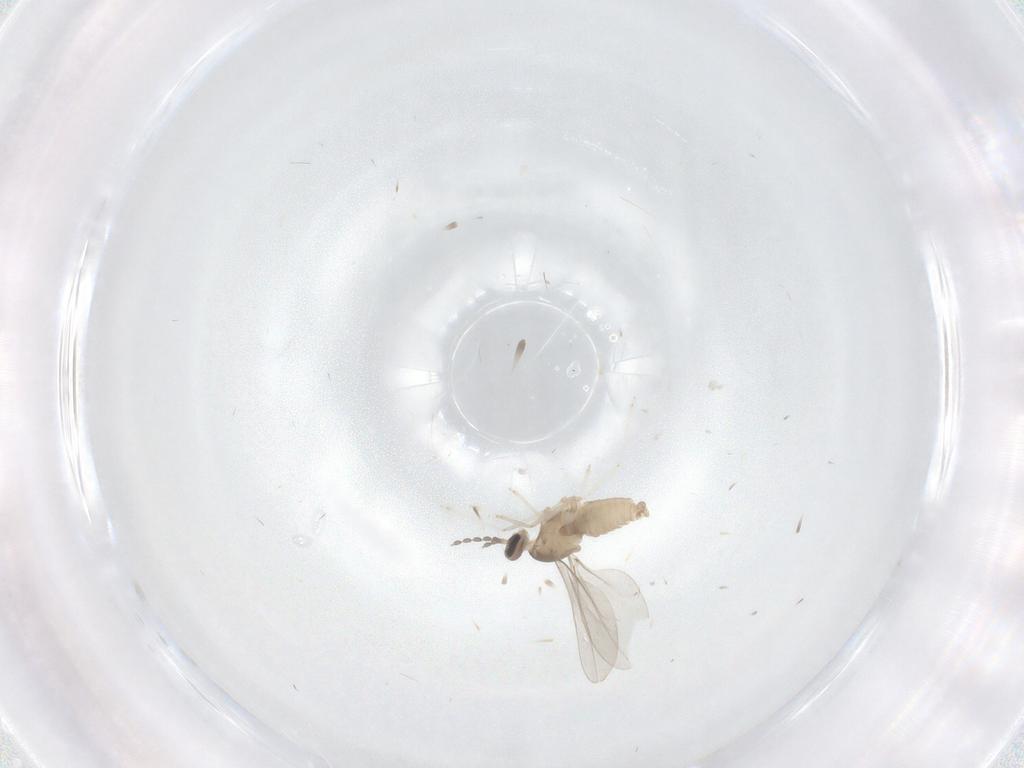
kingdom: Animalia
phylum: Arthropoda
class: Insecta
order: Diptera
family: Cecidomyiidae
